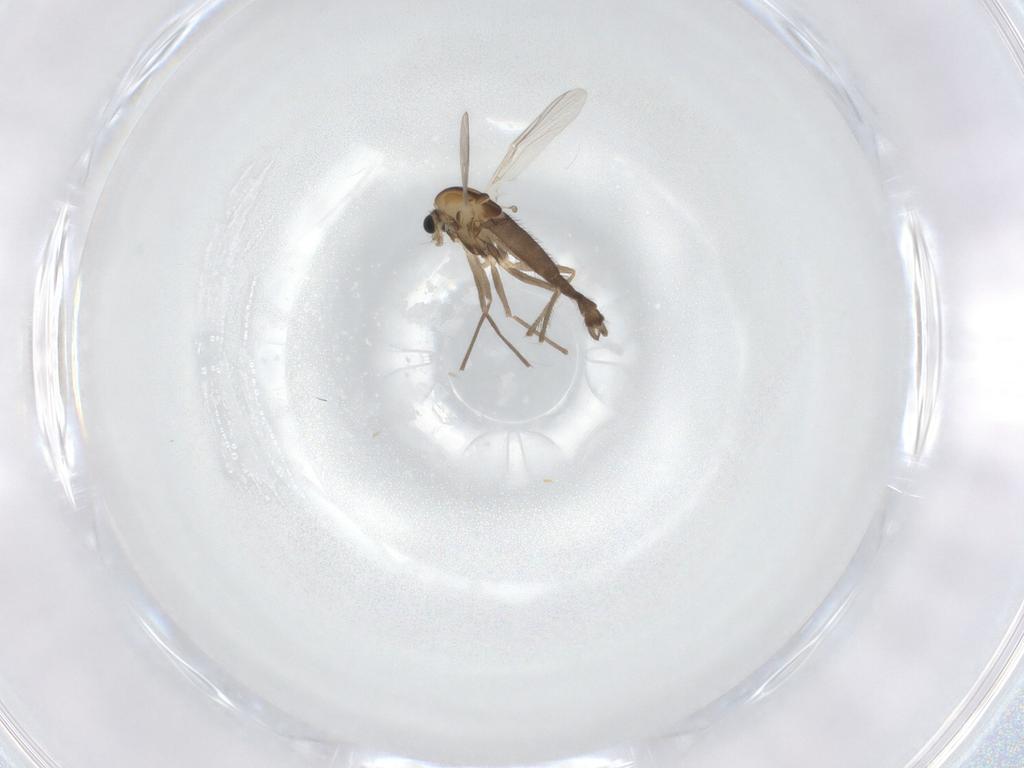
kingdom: Animalia
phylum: Arthropoda
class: Insecta
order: Diptera
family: Chironomidae
